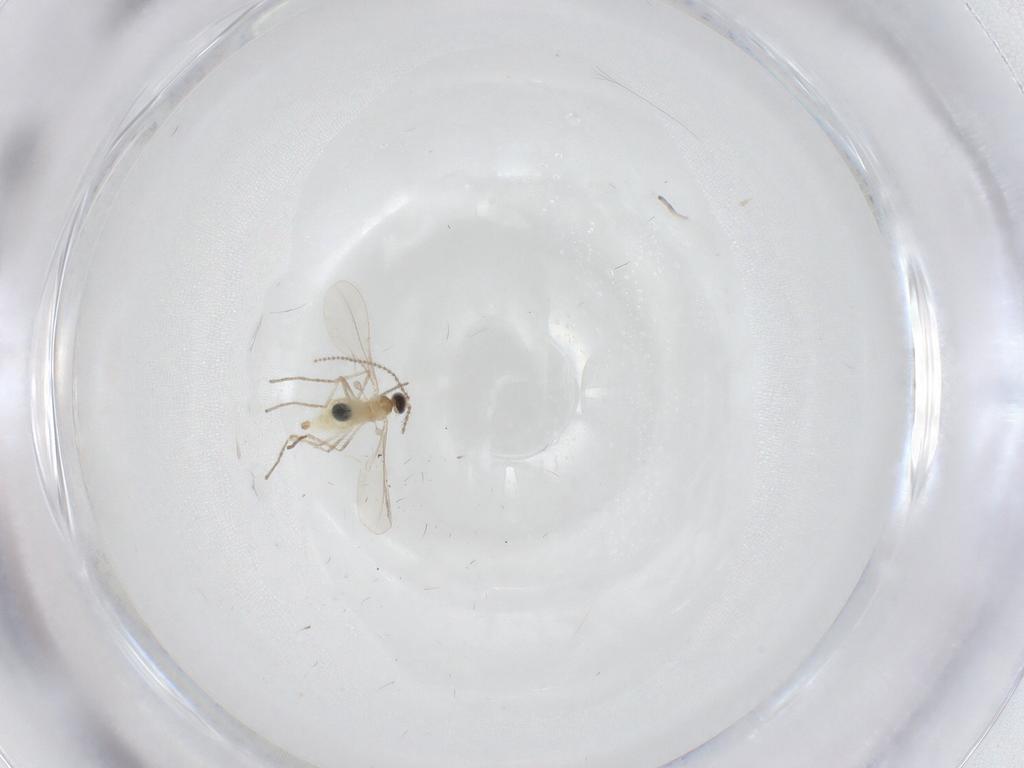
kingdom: Animalia
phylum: Arthropoda
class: Insecta
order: Diptera
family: Cecidomyiidae
